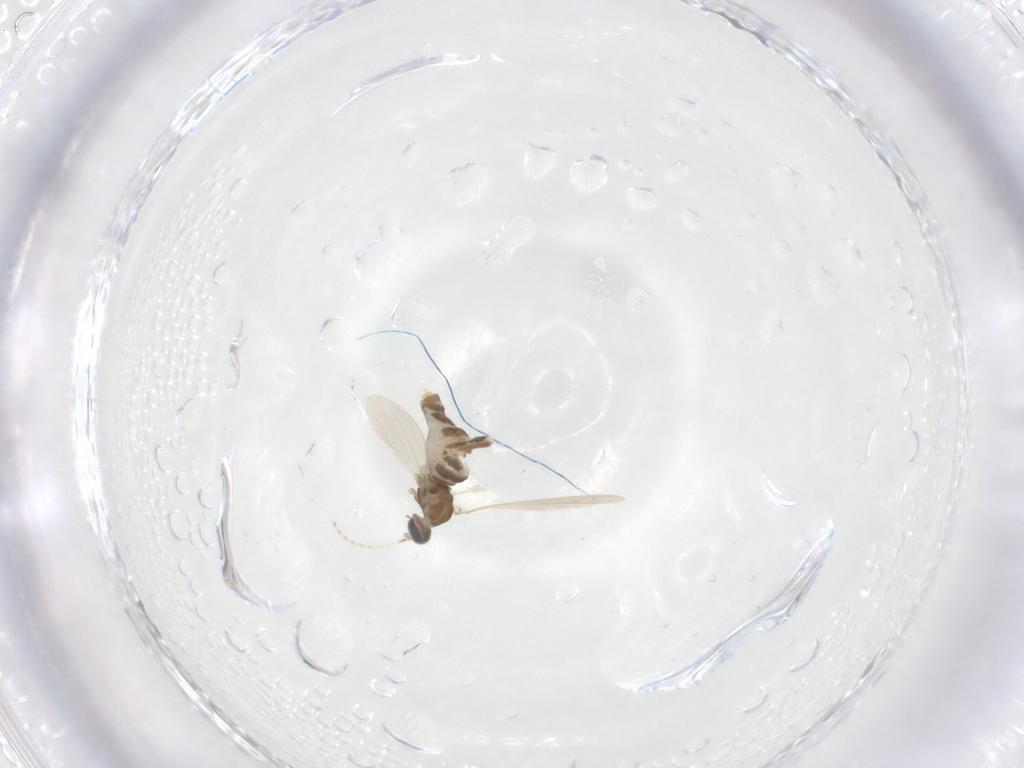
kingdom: Animalia
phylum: Arthropoda
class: Insecta
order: Diptera
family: Cecidomyiidae
